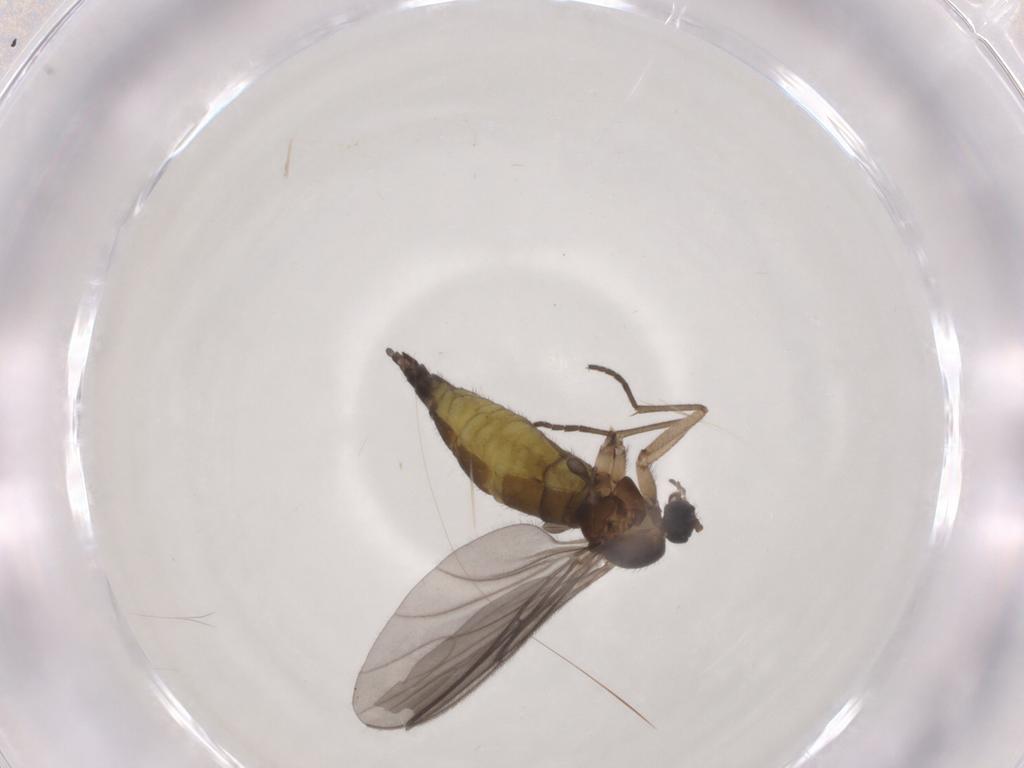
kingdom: Animalia
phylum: Arthropoda
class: Insecta
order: Diptera
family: Sciaridae
